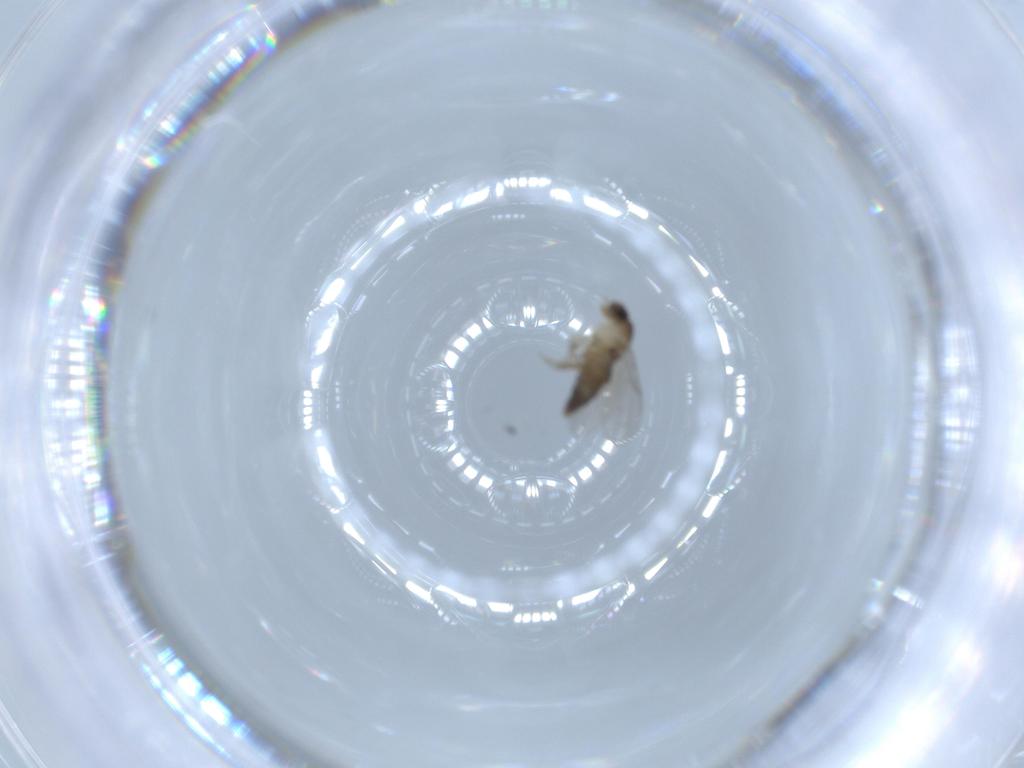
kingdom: Animalia
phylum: Arthropoda
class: Insecta
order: Diptera
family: Phoridae
